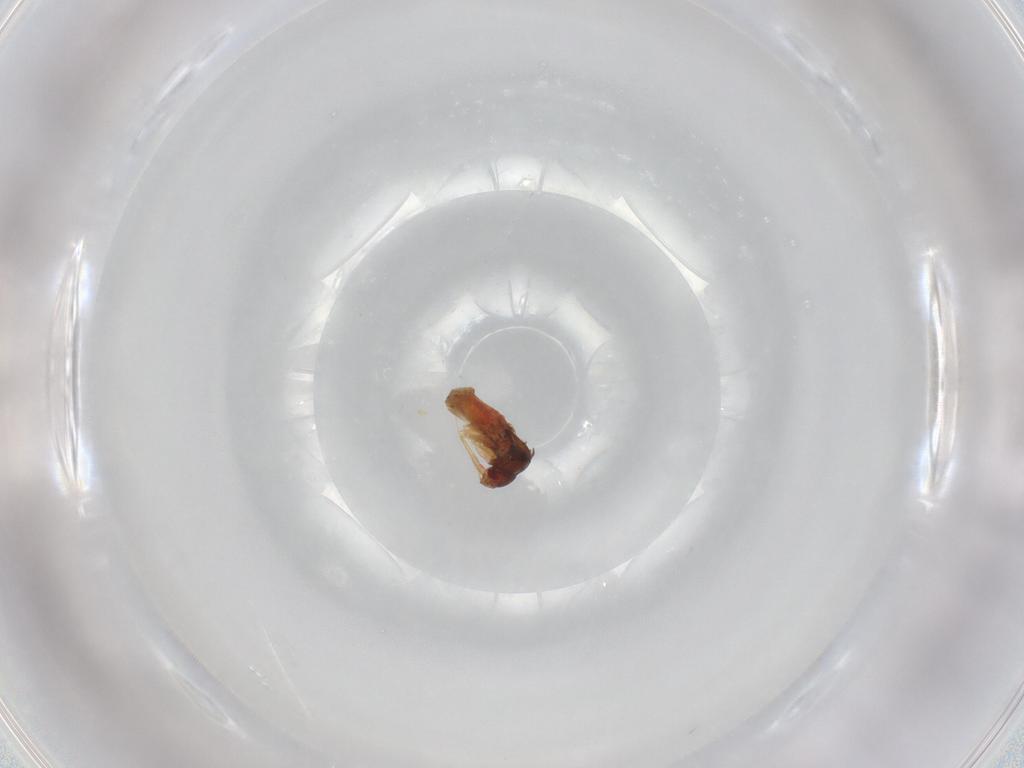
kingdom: Animalia
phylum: Arthropoda
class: Insecta
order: Hemiptera
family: Ceratocombidae
